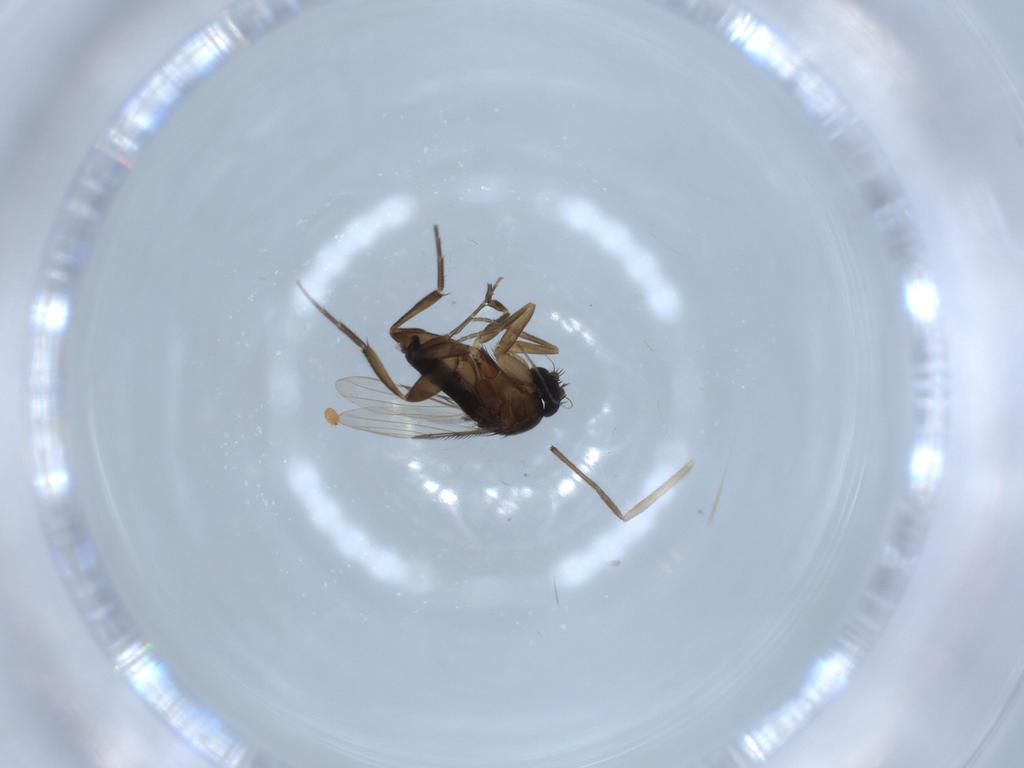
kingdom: Animalia
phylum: Arthropoda
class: Insecta
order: Diptera
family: Phoridae
